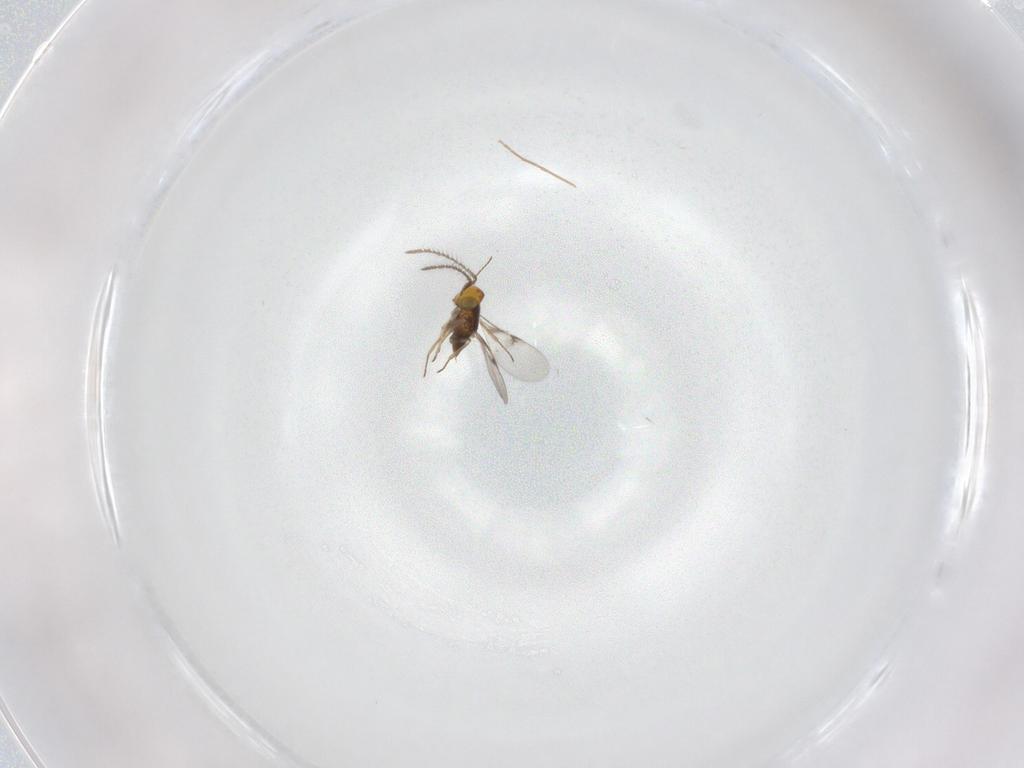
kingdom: Animalia
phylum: Arthropoda
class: Insecta
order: Hymenoptera
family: Encyrtidae
